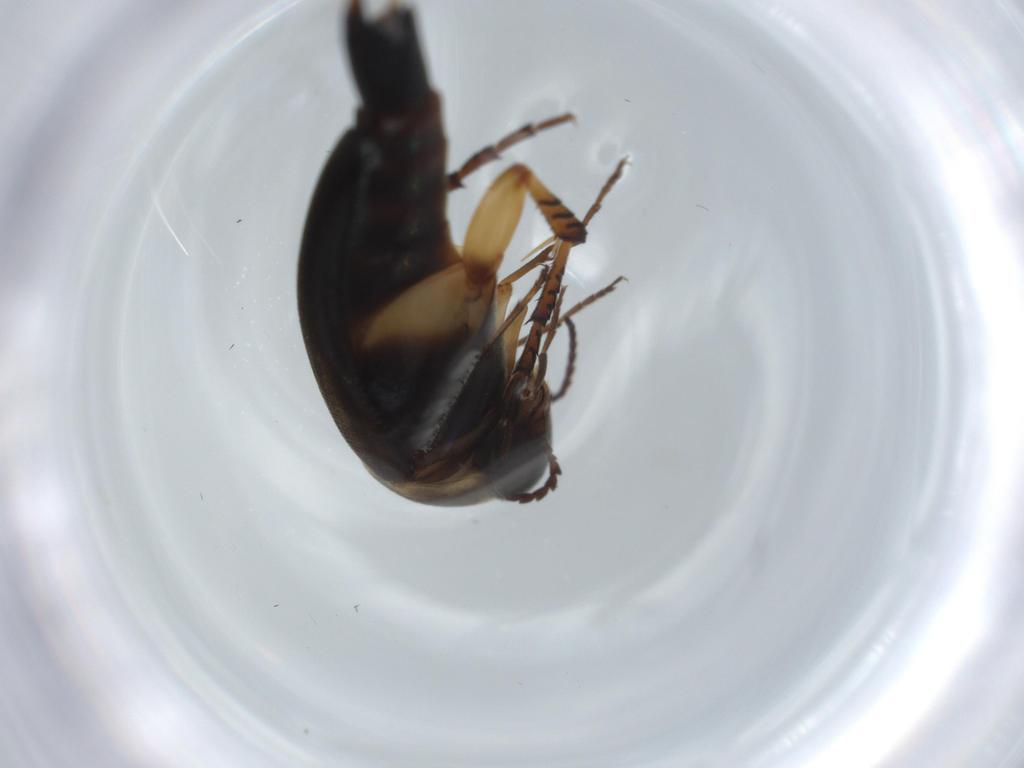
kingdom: Animalia
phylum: Arthropoda
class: Insecta
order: Coleoptera
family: Mordellidae
